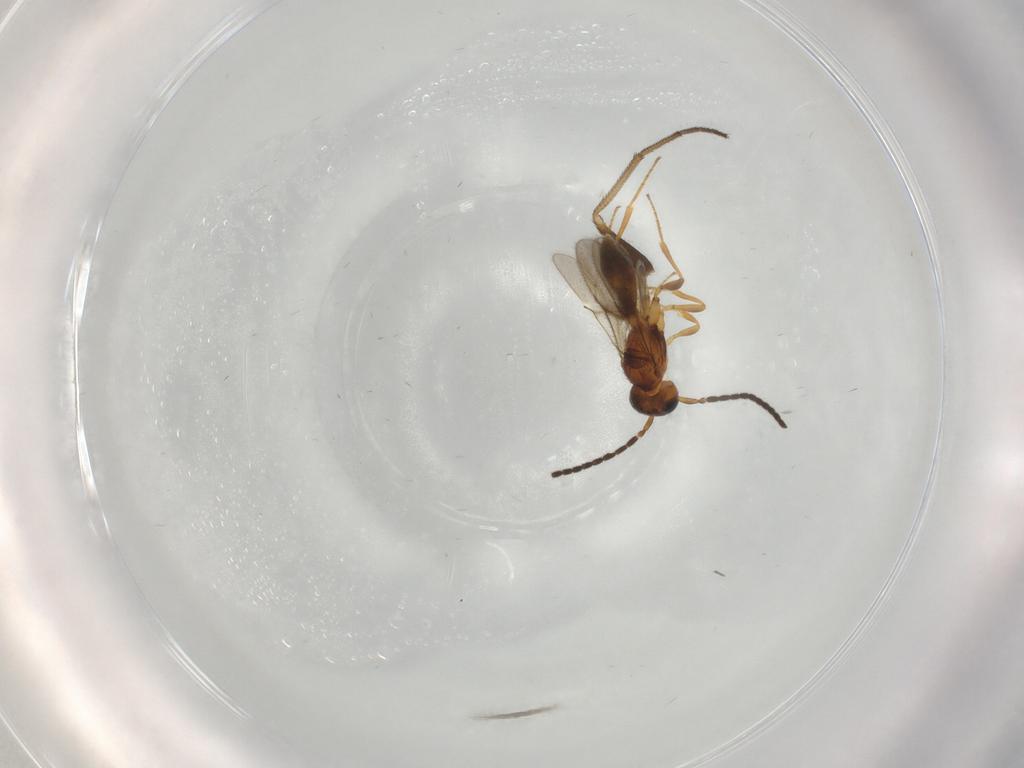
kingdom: Animalia
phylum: Arthropoda
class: Insecta
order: Hymenoptera
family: Scelionidae
